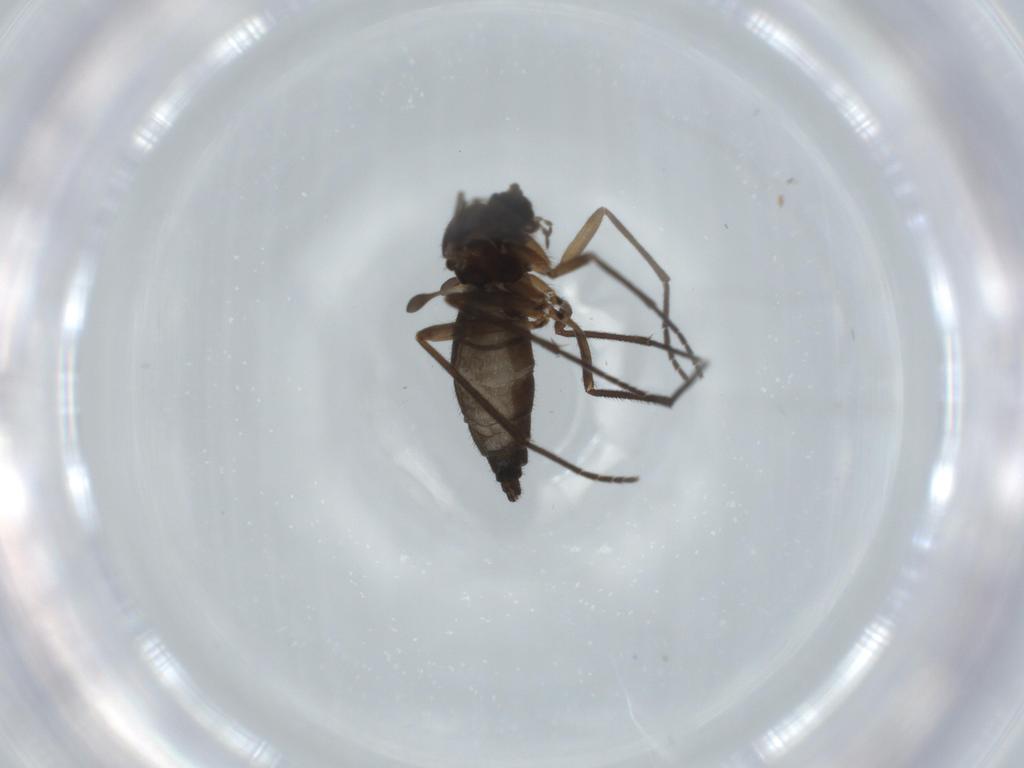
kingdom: Animalia
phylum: Arthropoda
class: Insecta
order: Diptera
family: Sciaridae
